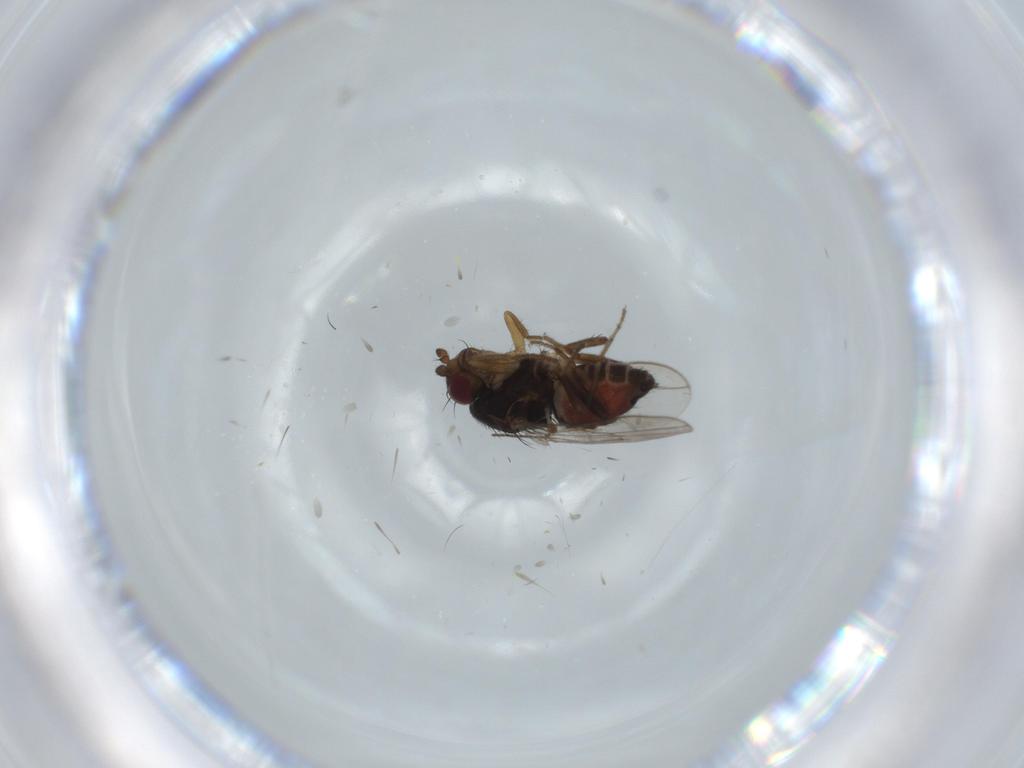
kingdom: Animalia
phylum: Arthropoda
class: Insecta
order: Diptera
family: Sphaeroceridae
